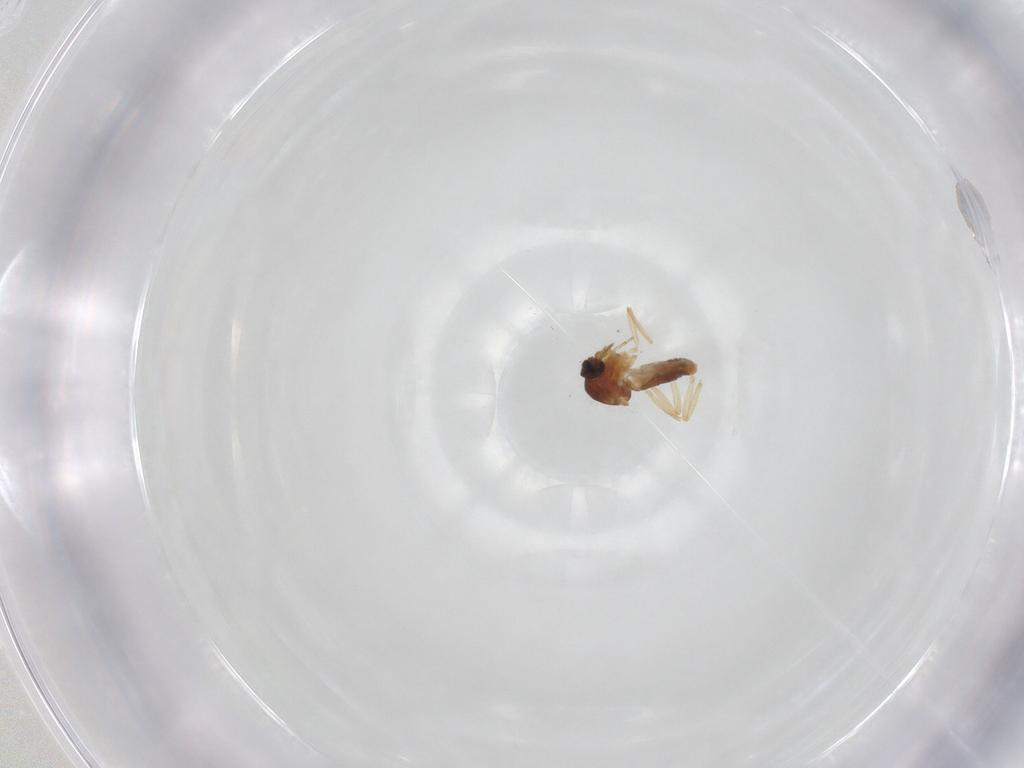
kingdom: Animalia
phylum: Arthropoda
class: Insecta
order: Diptera
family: Ceratopogonidae
